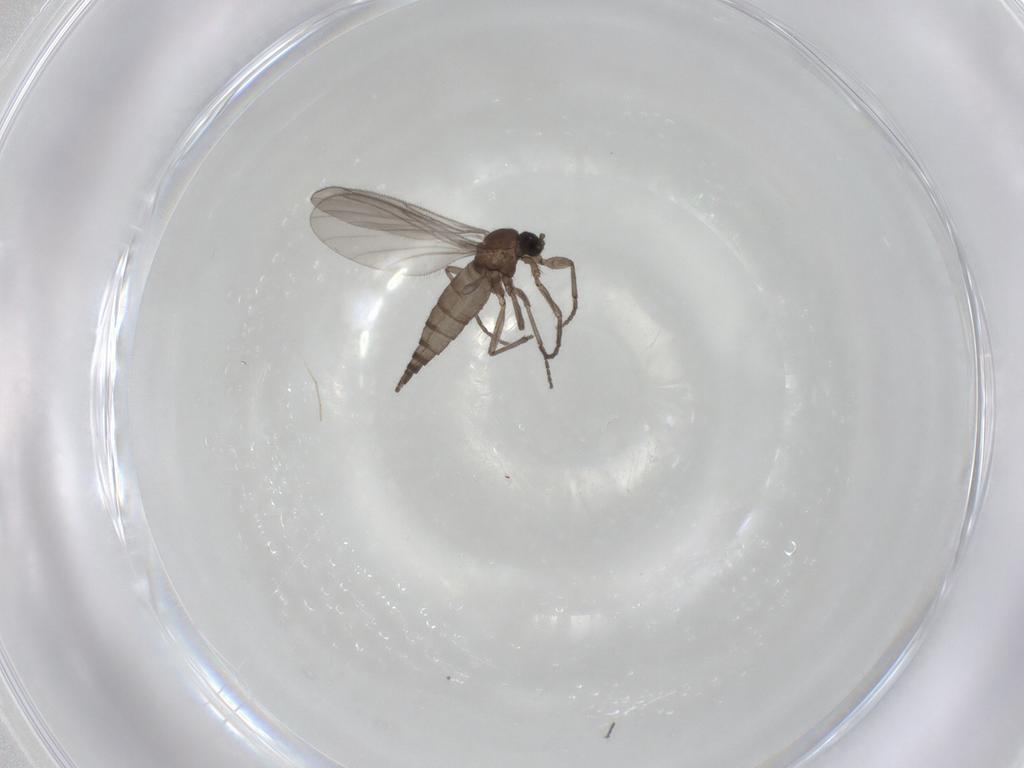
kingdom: Animalia
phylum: Arthropoda
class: Insecta
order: Diptera
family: Sciaridae
